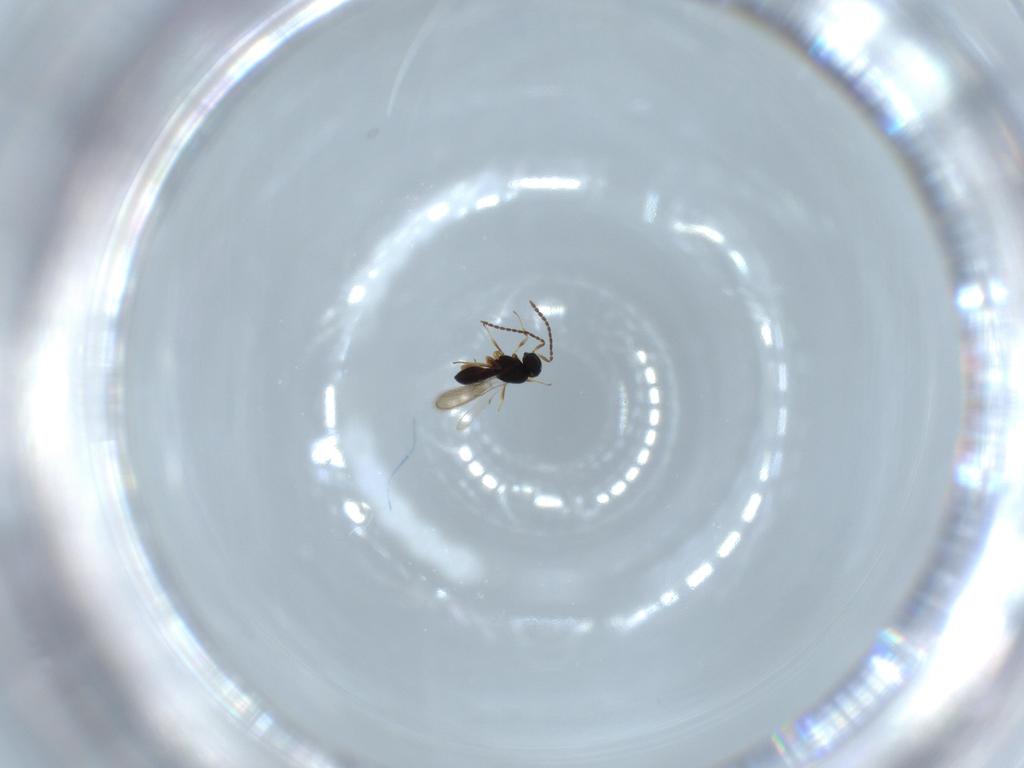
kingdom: Animalia
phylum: Arthropoda
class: Insecta
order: Hymenoptera
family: Scelionidae
